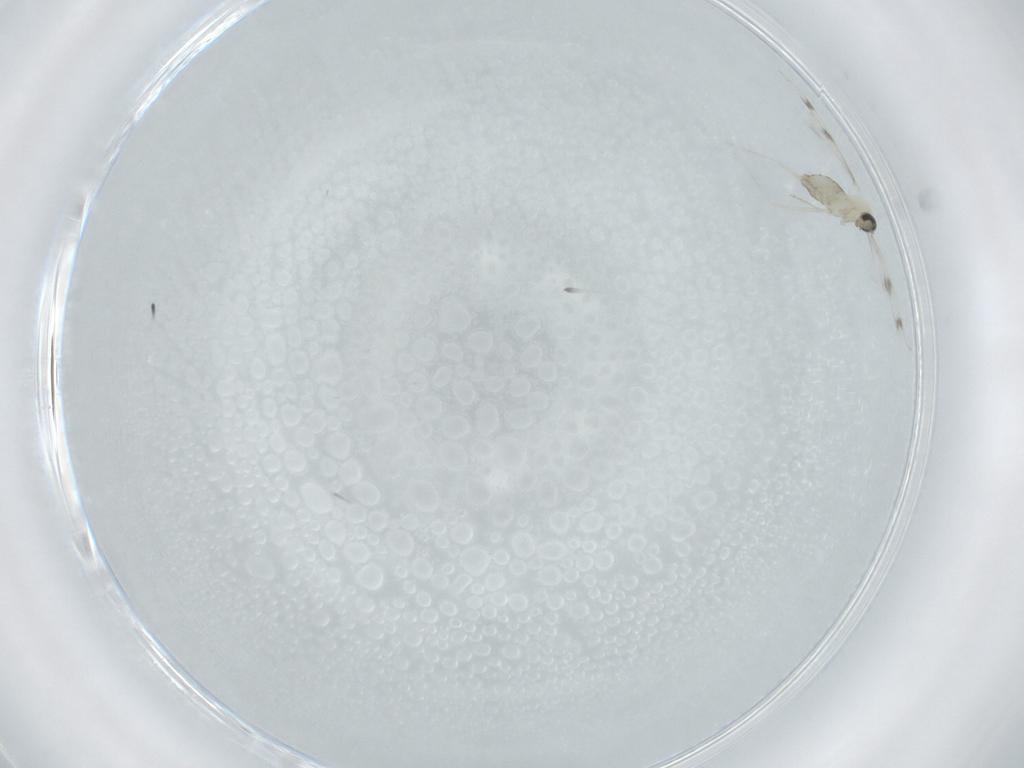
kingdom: Animalia
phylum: Arthropoda
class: Insecta
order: Diptera
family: Cecidomyiidae
